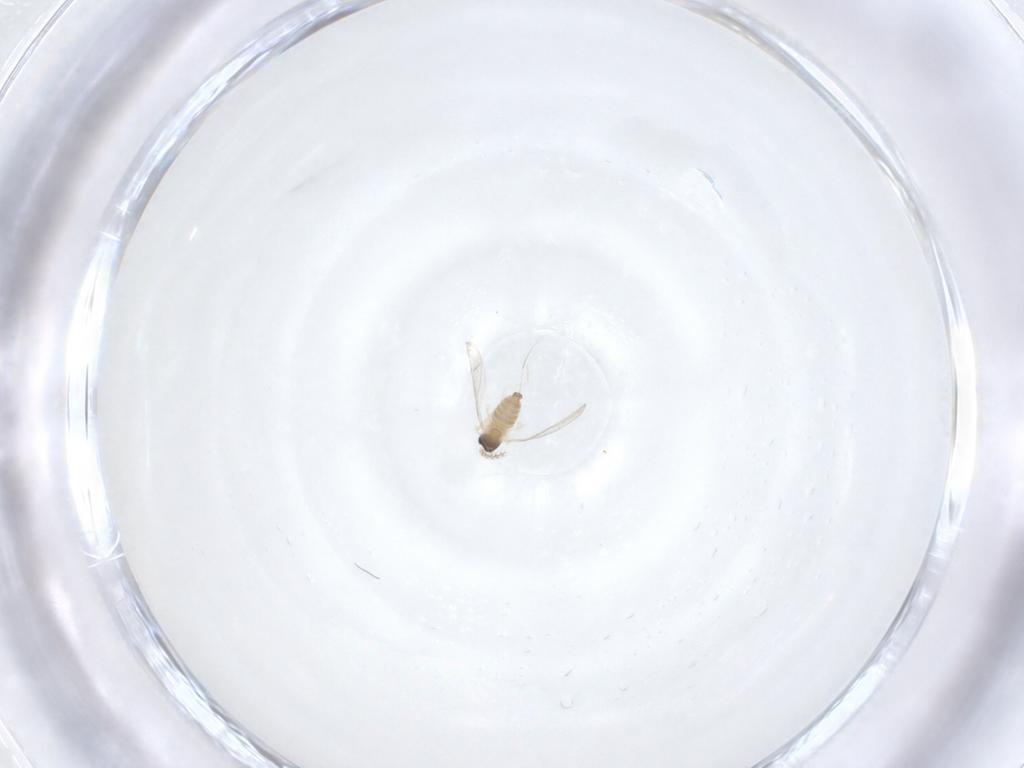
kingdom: Animalia
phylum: Arthropoda
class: Insecta
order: Diptera
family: Cecidomyiidae
